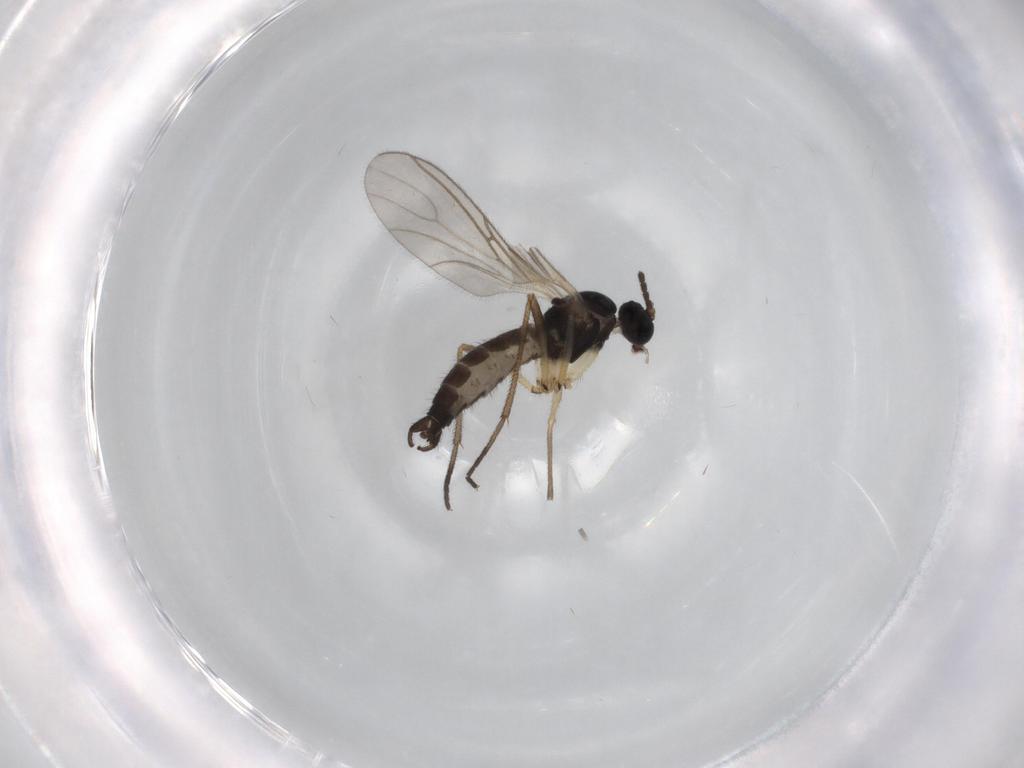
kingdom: Animalia
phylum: Arthropoda
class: Insecta
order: Diptera
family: Sciaridae
